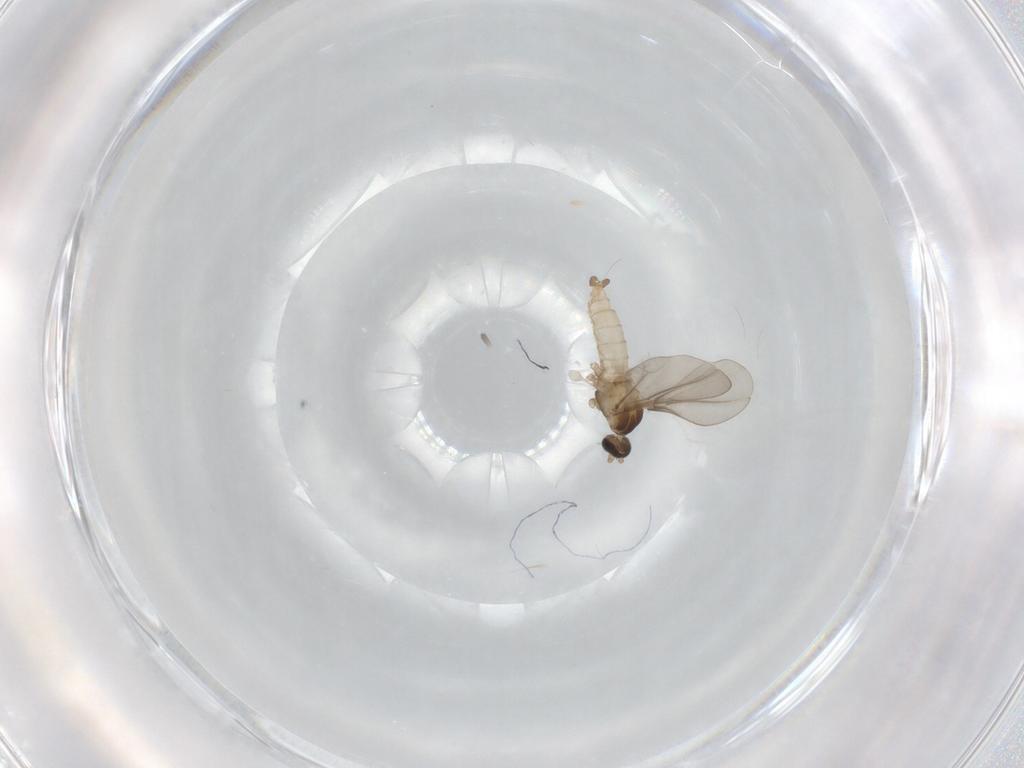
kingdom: Animalia
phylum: Arthropoda
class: Insecta
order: Diptera
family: Cecidomyiidae
